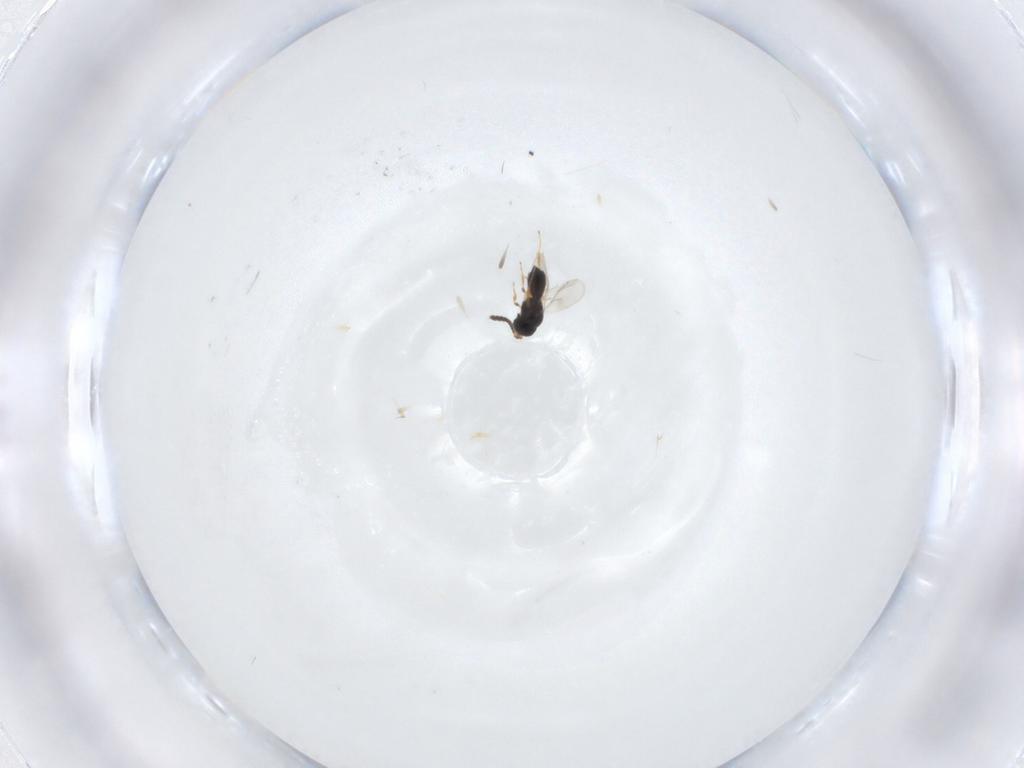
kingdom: Animalia
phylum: Arthropoda
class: Insecta
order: Hymenoptera
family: Scelionidae
